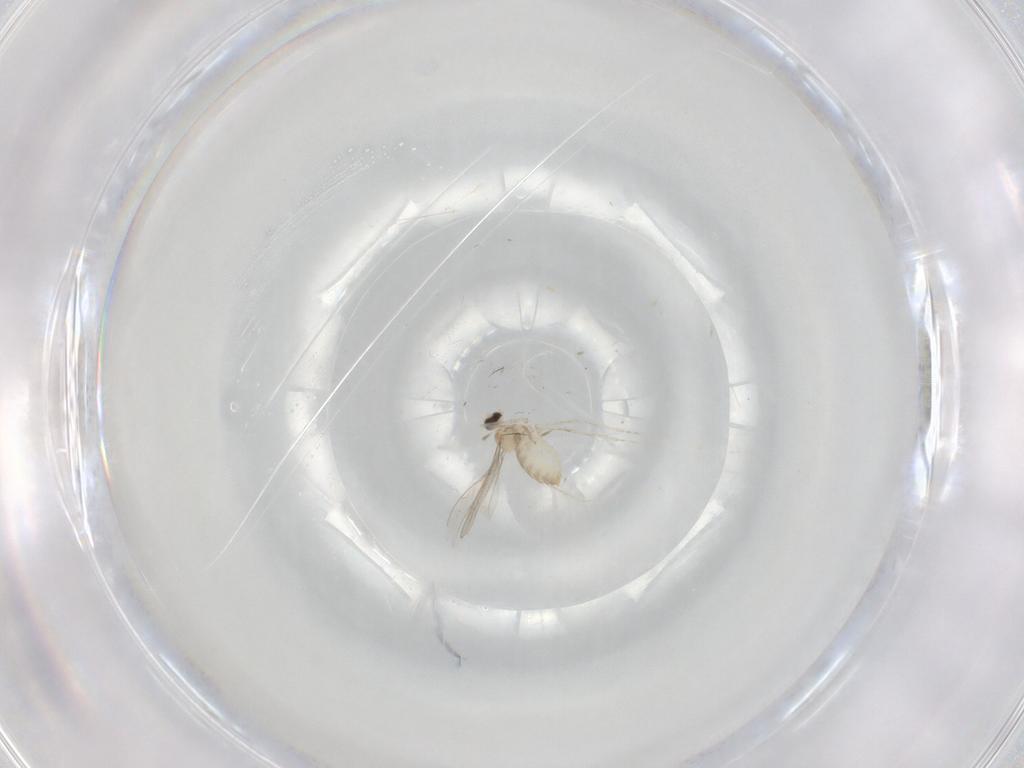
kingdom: Animalia
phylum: Arthropoda
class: Insecta
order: Diptera
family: Cecidomyiidae
